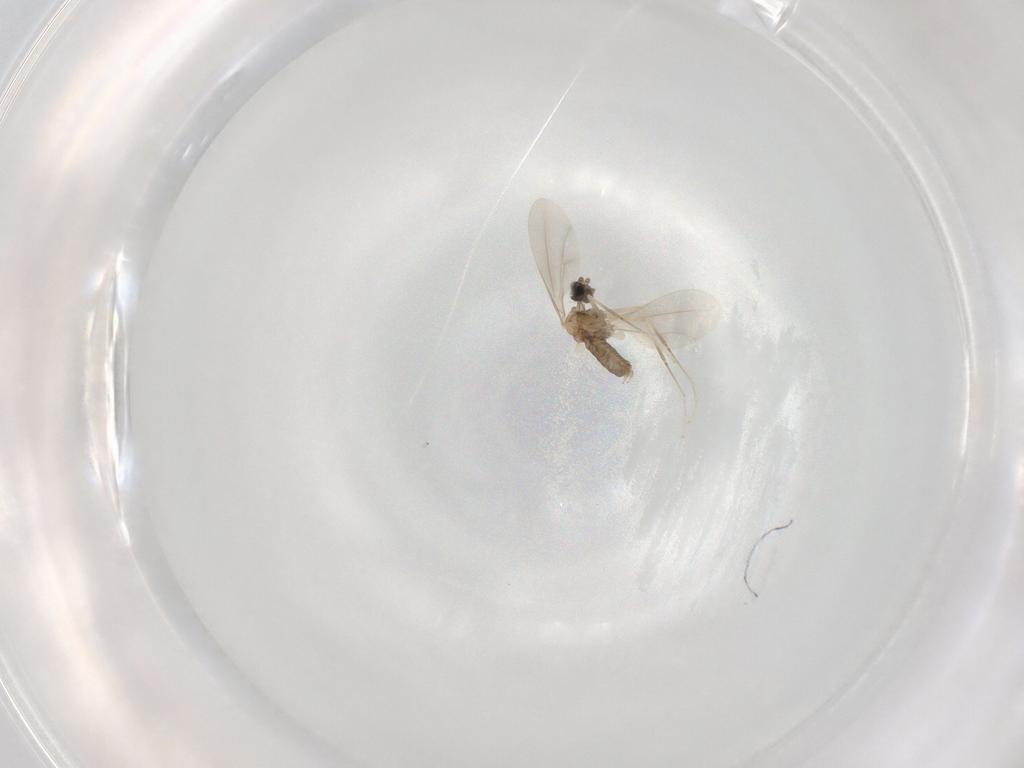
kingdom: Animalia
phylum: Arthropoda
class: Insecta
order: Diptera
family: Cecidomyiidae
